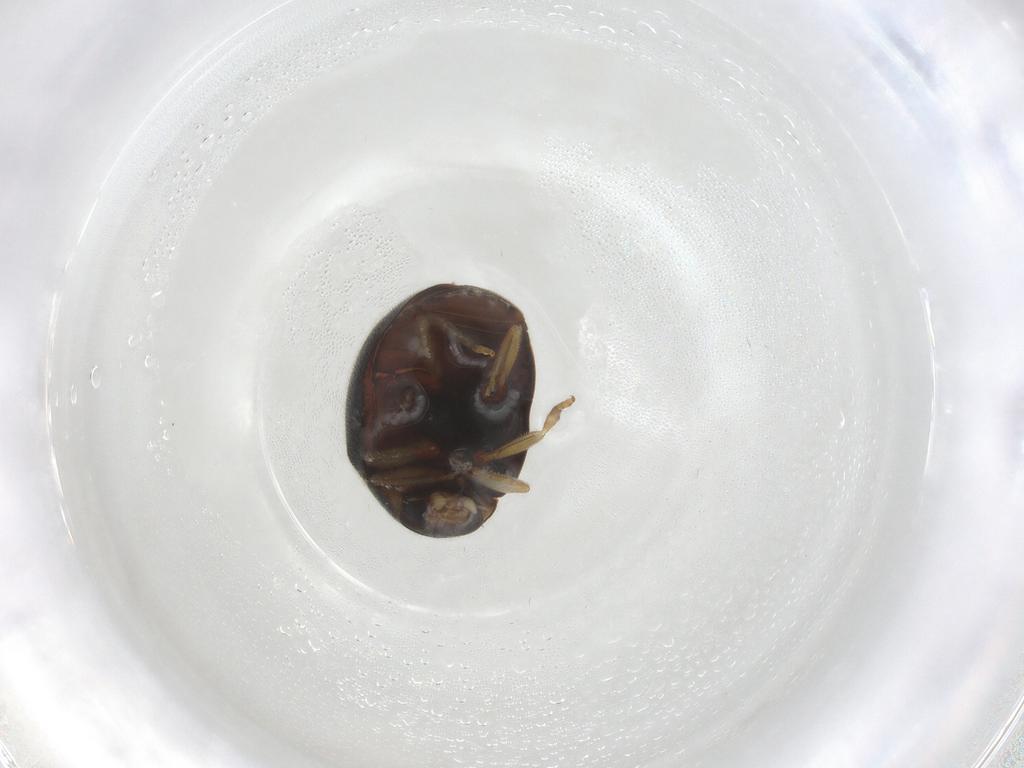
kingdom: Animalia
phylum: Arthropoda
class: Insecta
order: Coleoptera
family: Coccinellidae
